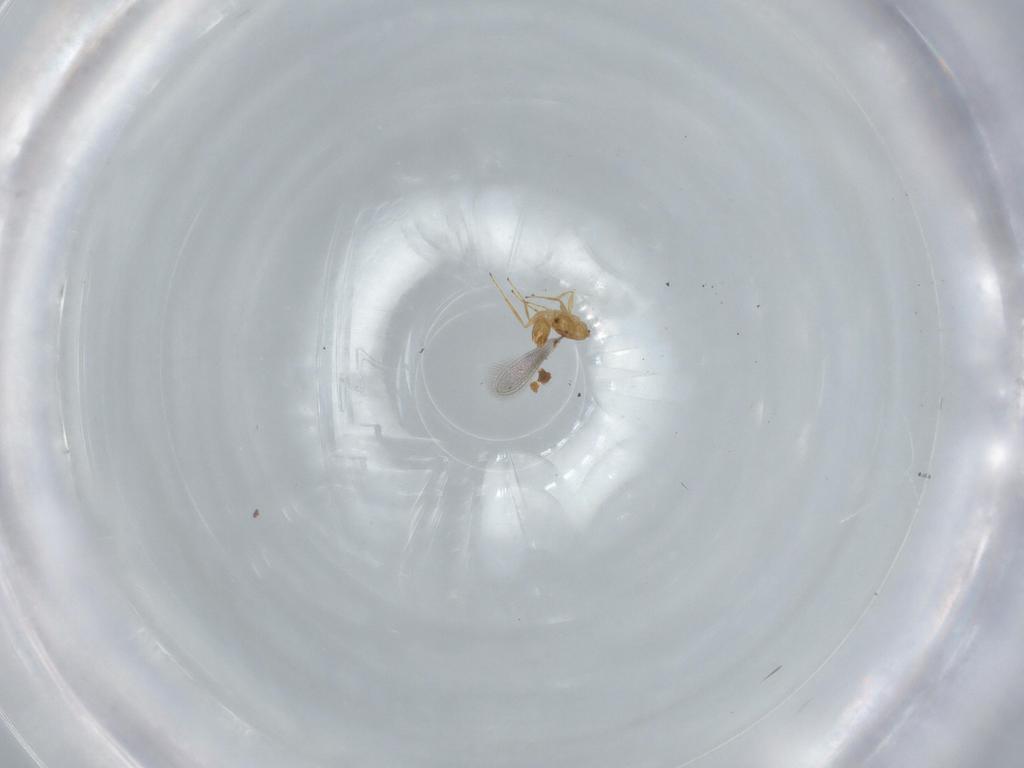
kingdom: Animalia
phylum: Arthropoda
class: Insecta
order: Hymenoptera
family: Mymaridae
